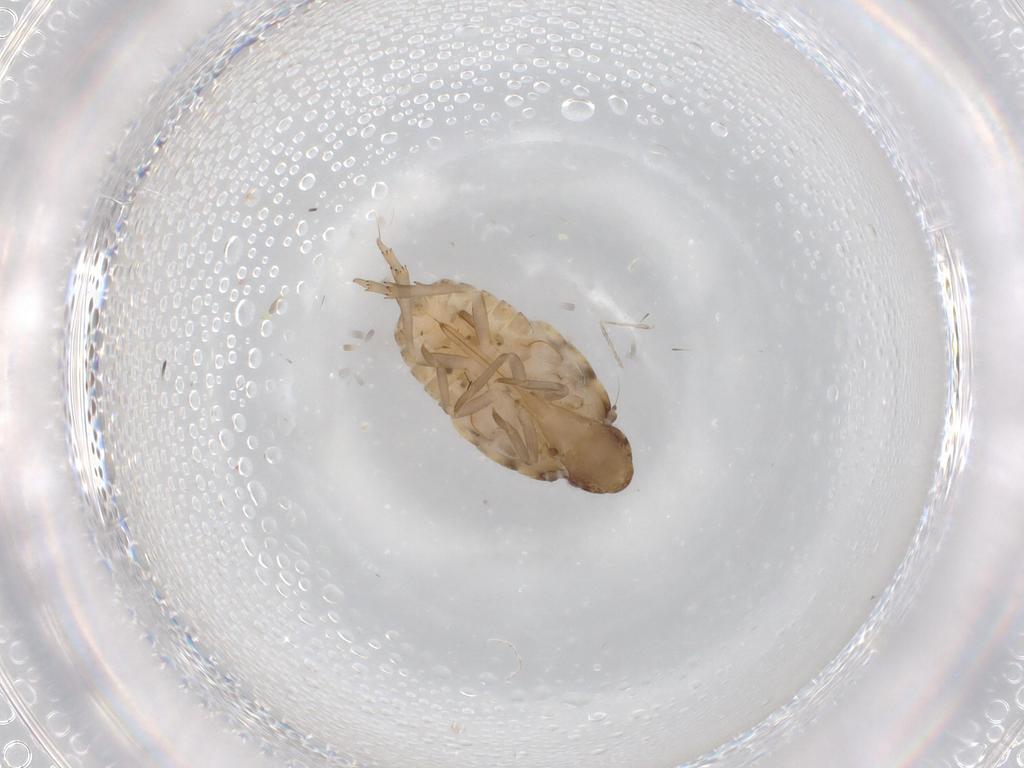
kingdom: Animalia
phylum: Arthropoda
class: Insecta
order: Hemiptera
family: Flatidae
